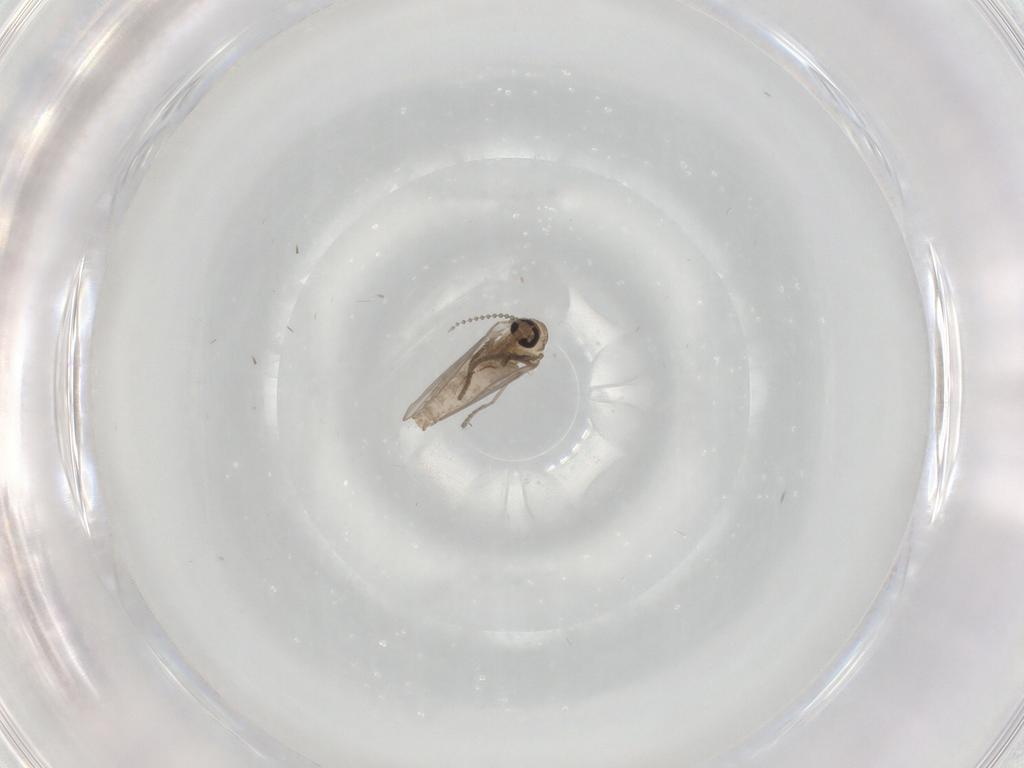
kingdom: Animalia
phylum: Arthropoda
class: Insecta
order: Diptera
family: Psychodidae
